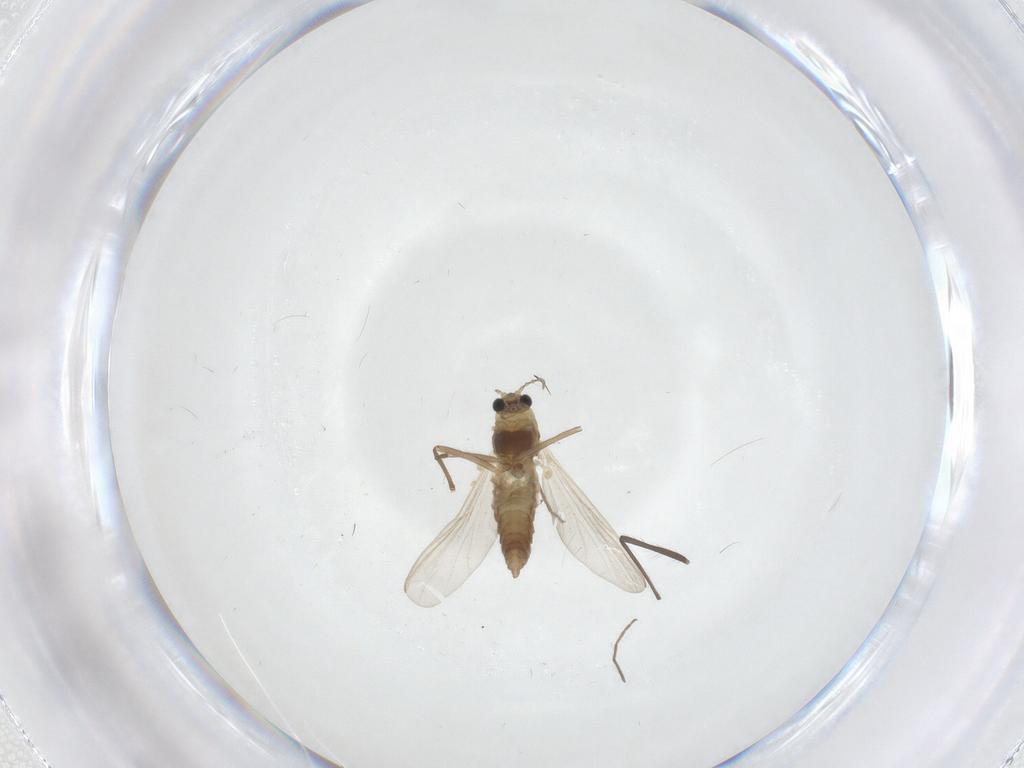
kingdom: Animalia
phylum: Arthropoda
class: Insecta
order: Diptera
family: Chironomidae
